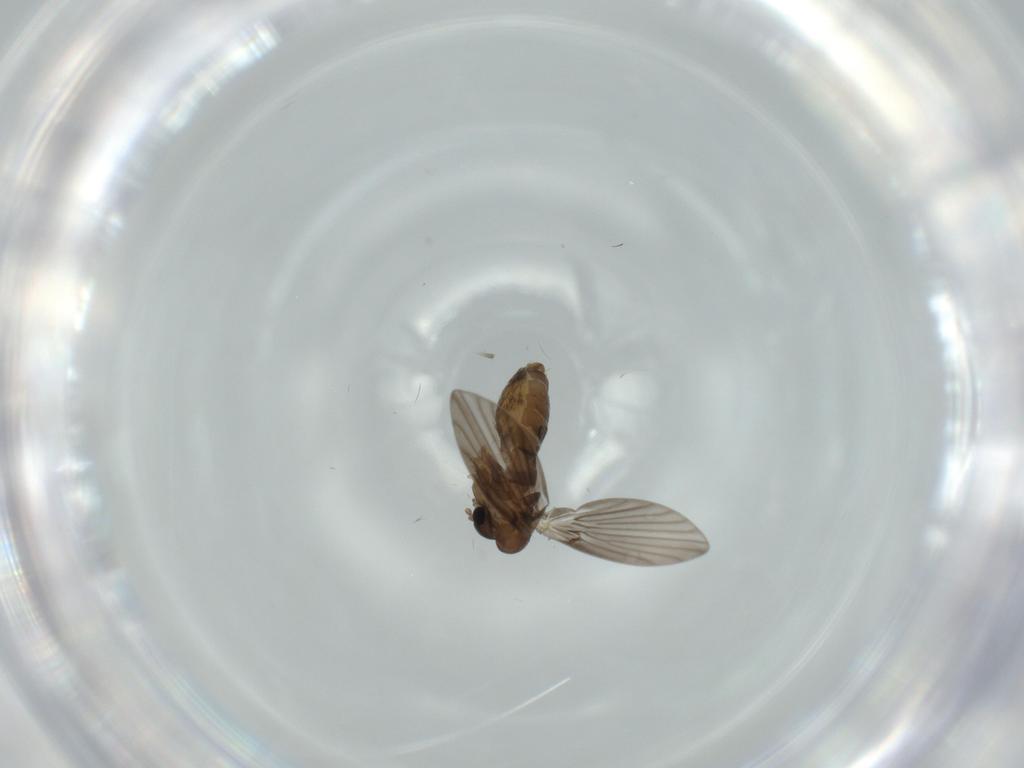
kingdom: Animalia
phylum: Arthropoda
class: Insecta
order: Diptera
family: Psychodidae
